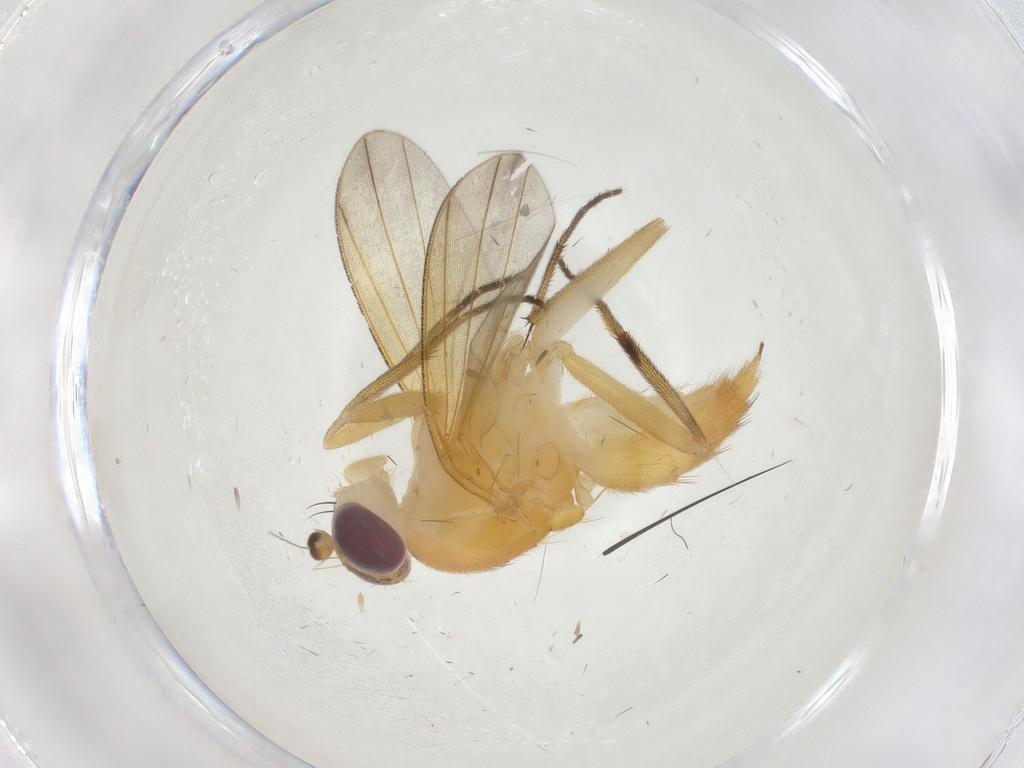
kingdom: Animalia
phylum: Arthropoda
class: Insecta
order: Diptera
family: Clusiidae
